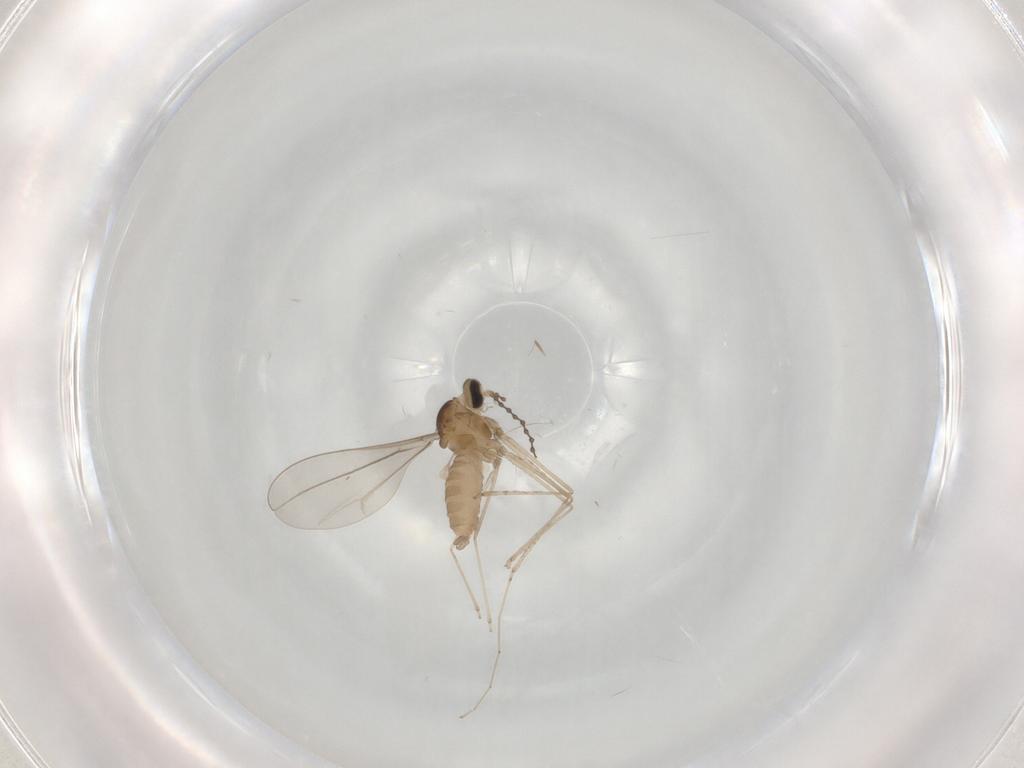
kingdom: Animalia
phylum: Arthropoda
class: Insecta
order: Diptera
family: Cecidomyiidae
